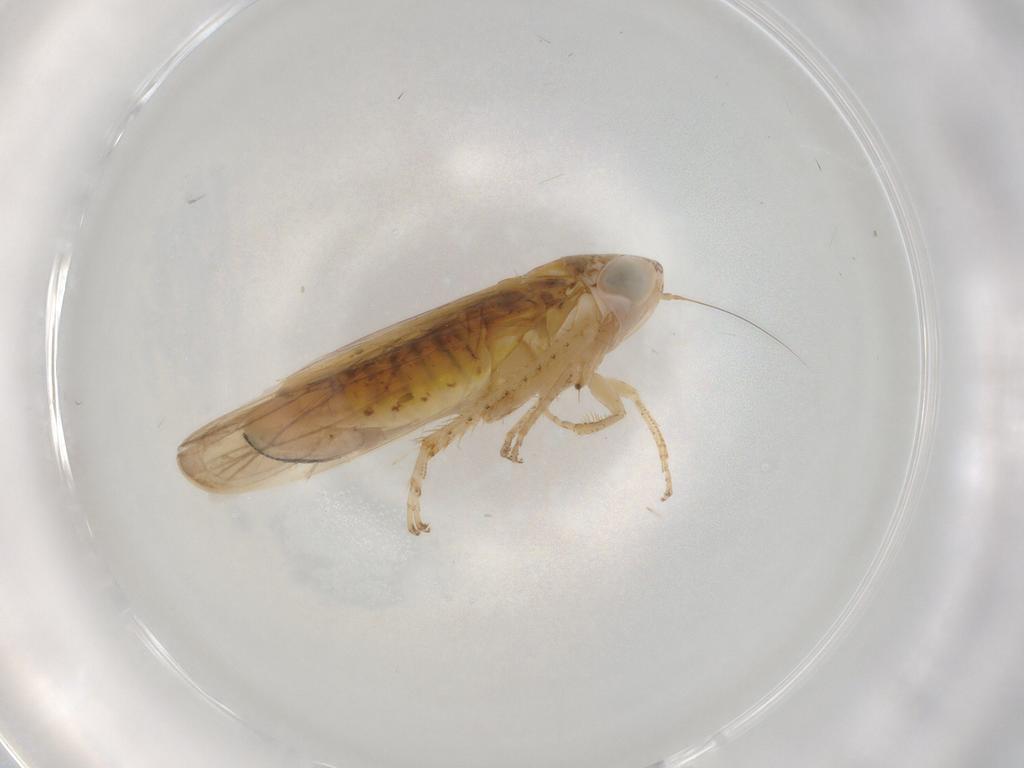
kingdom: Animalia
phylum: Arthropoda
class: Insecta
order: Hemiptera
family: Cicadellidae
